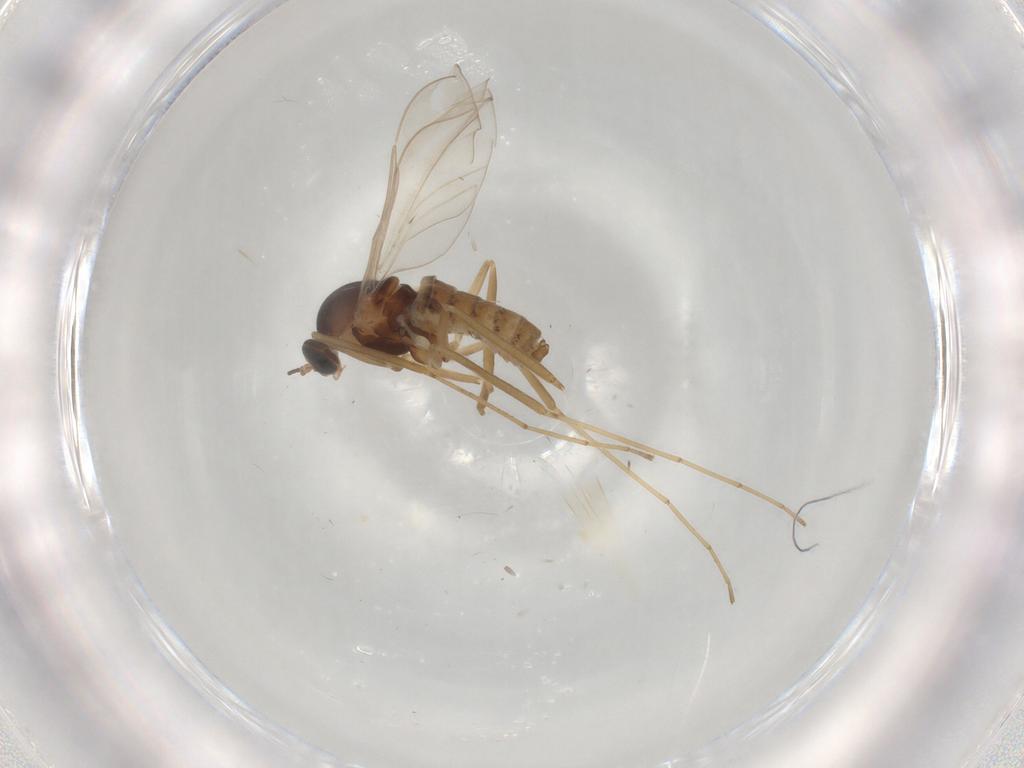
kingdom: Animalia
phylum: Arthropoda
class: Insecta
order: Diptera
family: Cecidomyiidae
